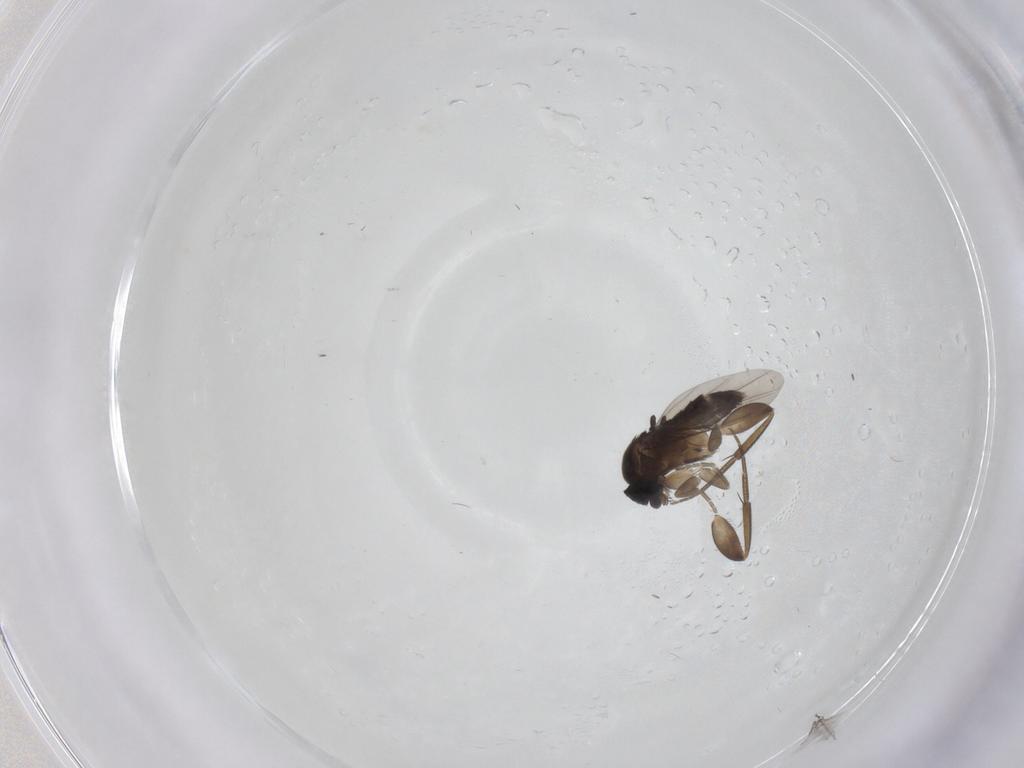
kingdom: Animalia
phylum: Arthropoda
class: Insecta
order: Diptera
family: Phoridae
